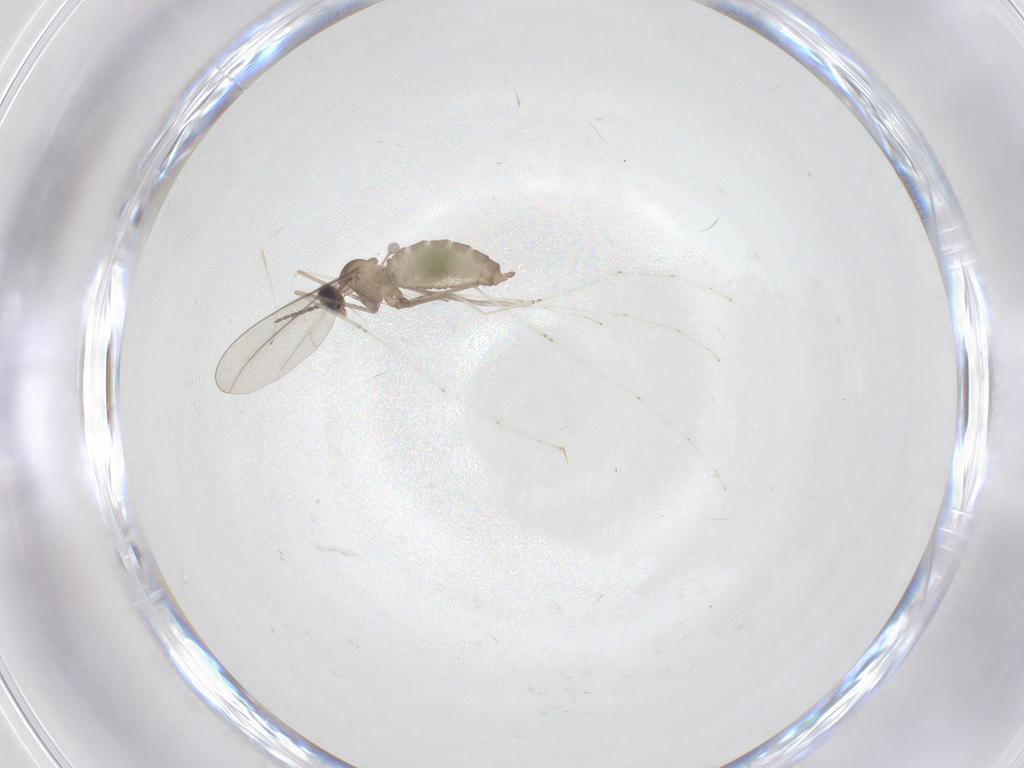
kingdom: Animalia
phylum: Arthropoda
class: Insecta
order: Diptera
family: Cecidomyiidae
